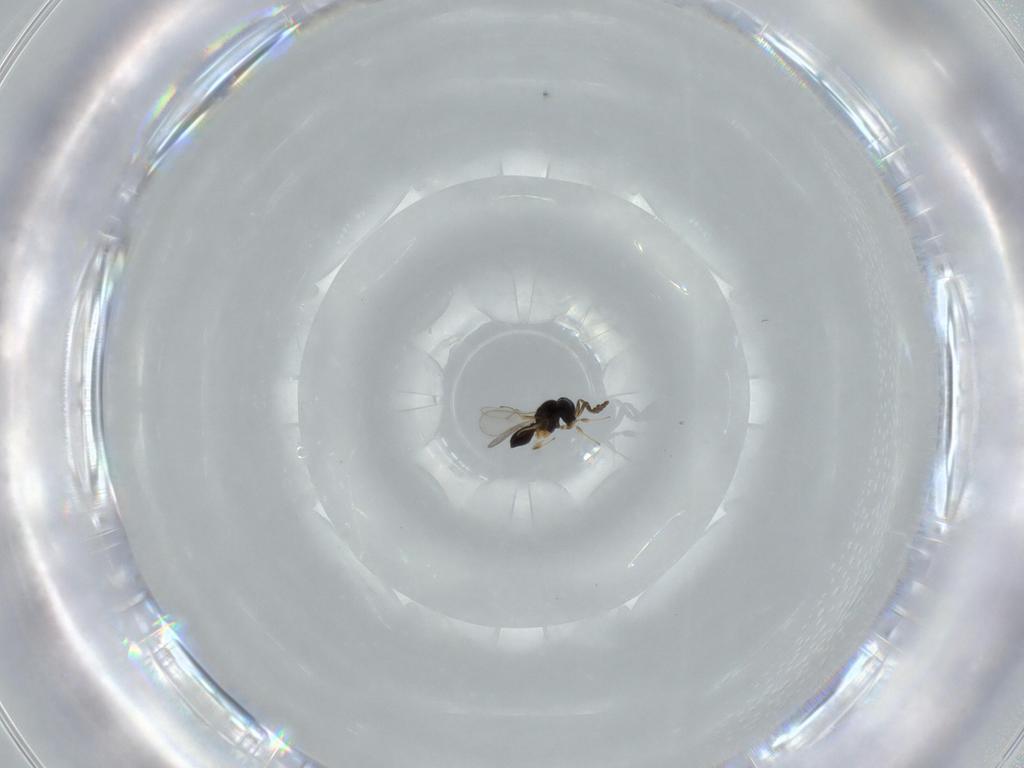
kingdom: Animalia
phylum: Arthropoda
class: Insecta
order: Hymenoptera
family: Scelionidae
